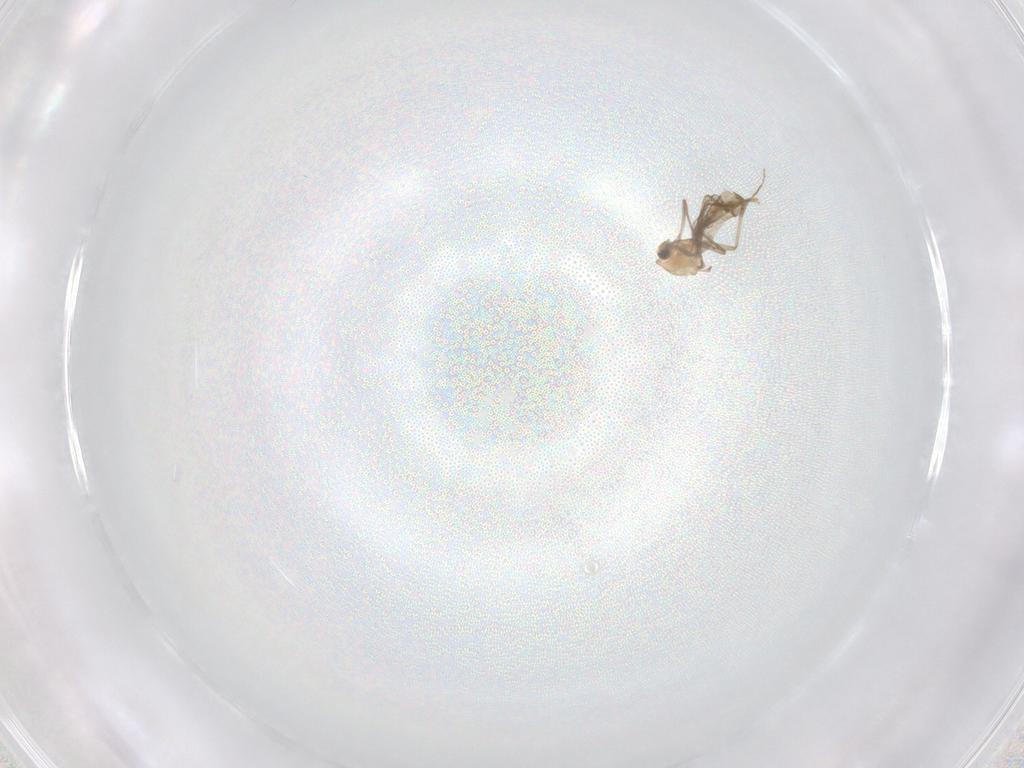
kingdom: Animalia
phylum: Arthropoda
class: Insecta
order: Diptera
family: Chironomidae
